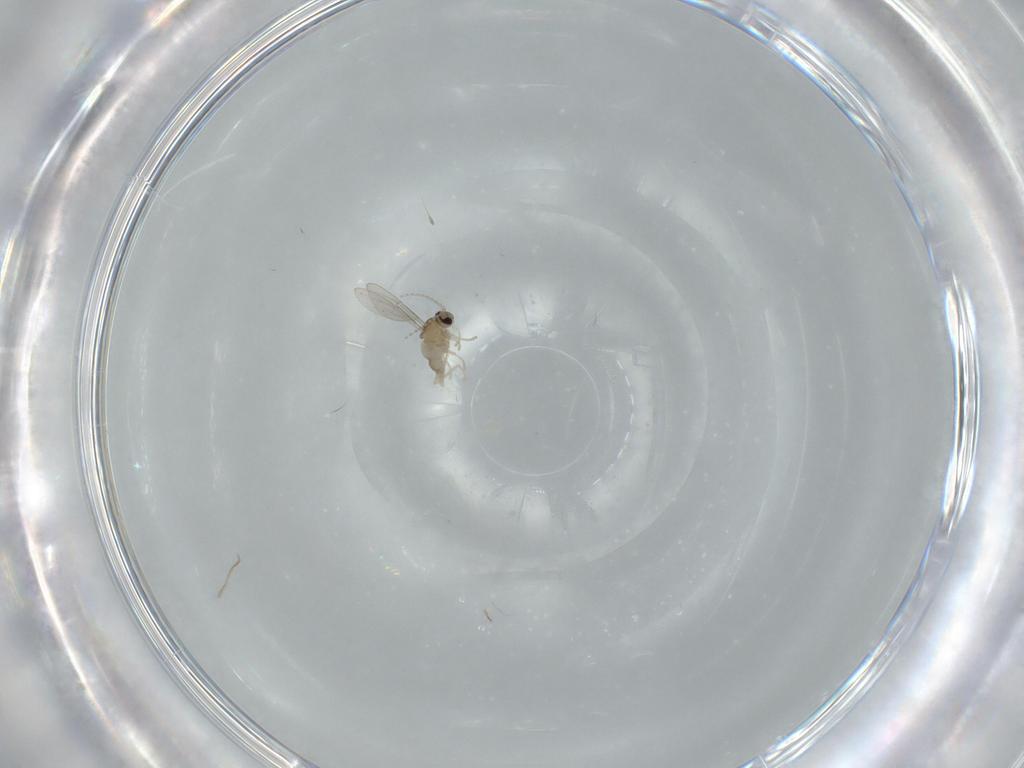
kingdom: Animalia
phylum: Arthropoda
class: Insecta
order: Diptera
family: Cecidomyiidae
